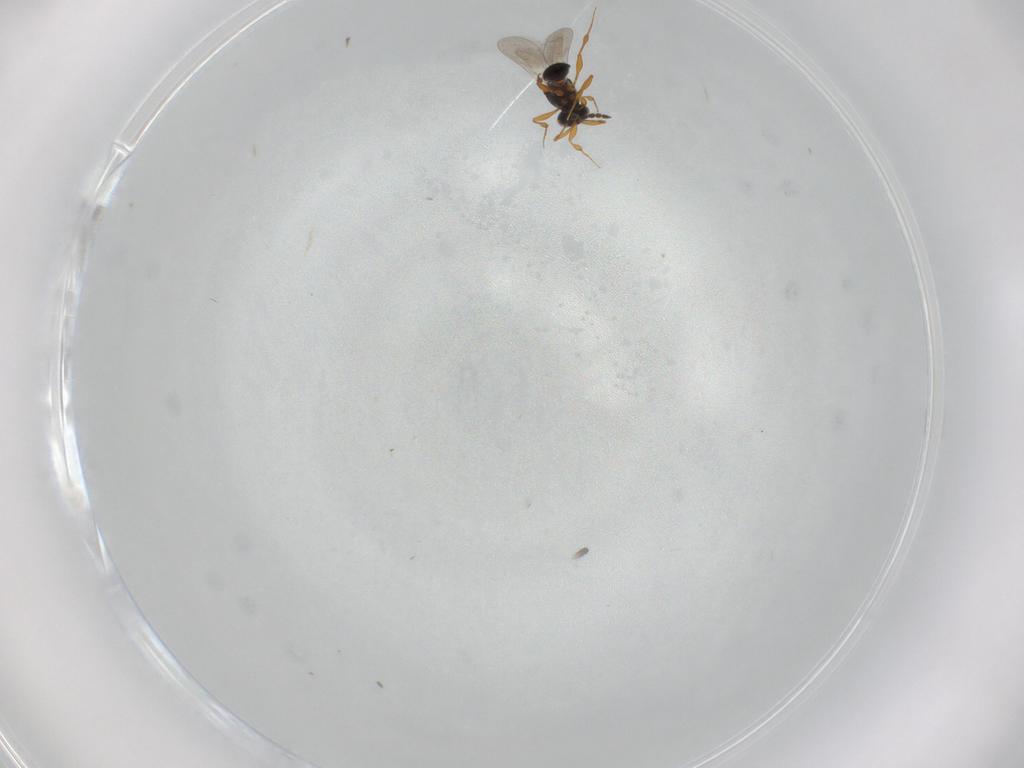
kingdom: Animalia
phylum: Arthropoda
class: Insecta
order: Hymenoptera
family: Platygastridae
